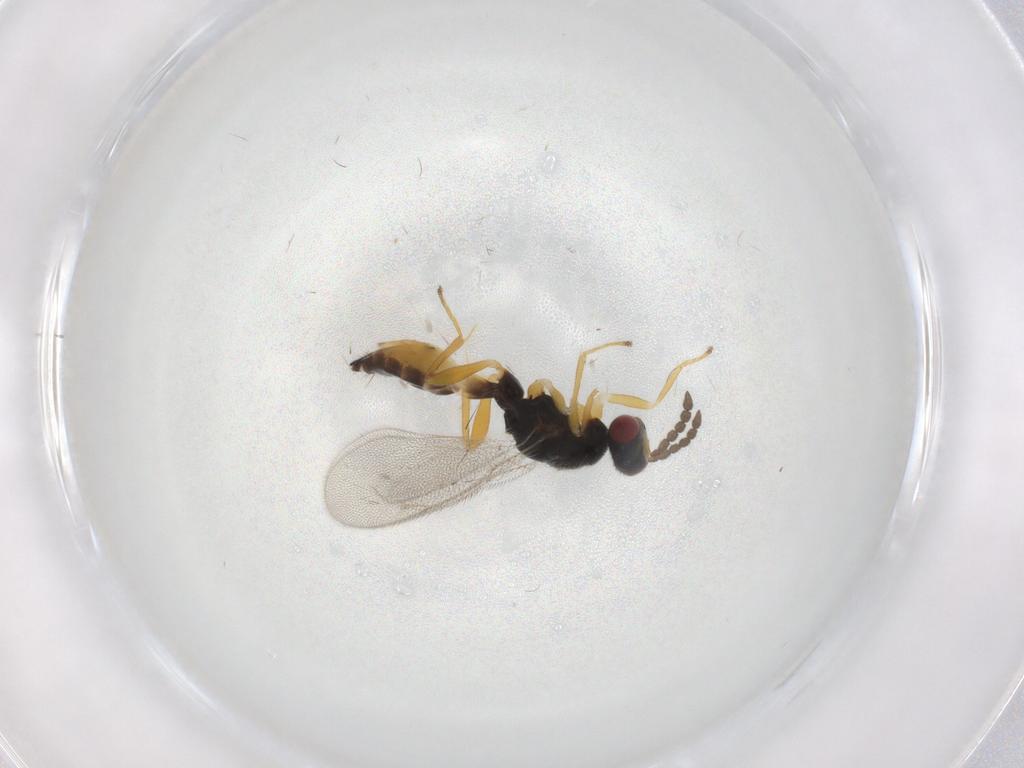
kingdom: Animalia
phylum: Arthropoda
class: Insecta
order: Hymenoptera
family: Eulophidae
